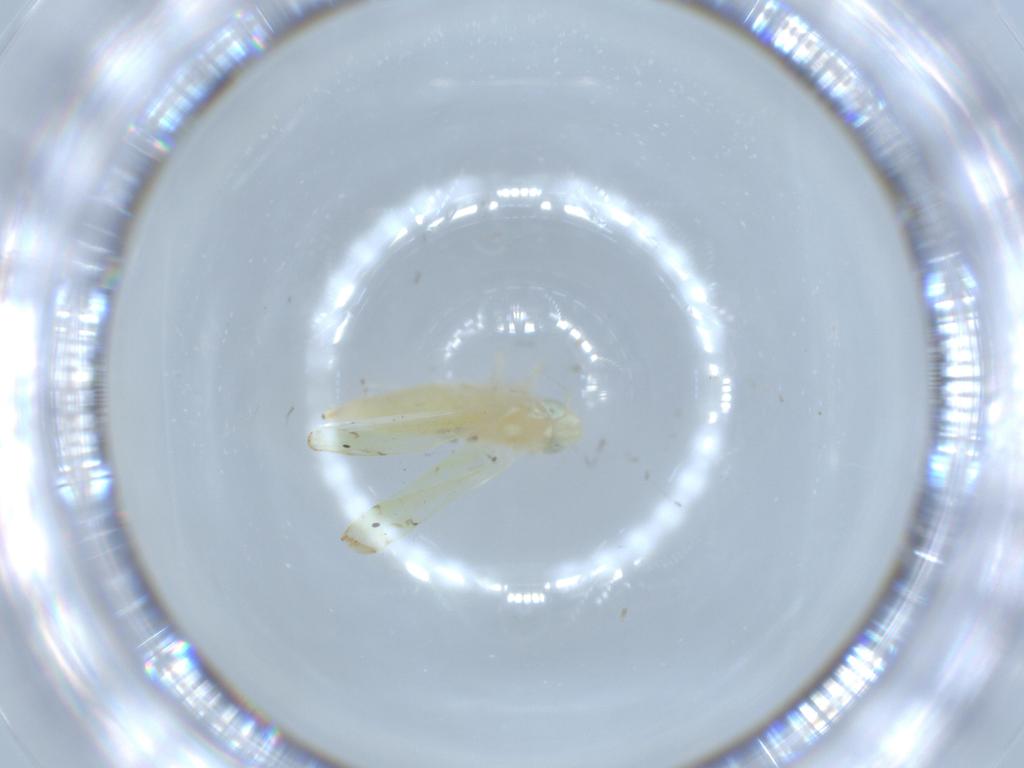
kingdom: Animalia
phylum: Arthropoda
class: Insecta
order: Hemiptera
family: Cicadellidae
